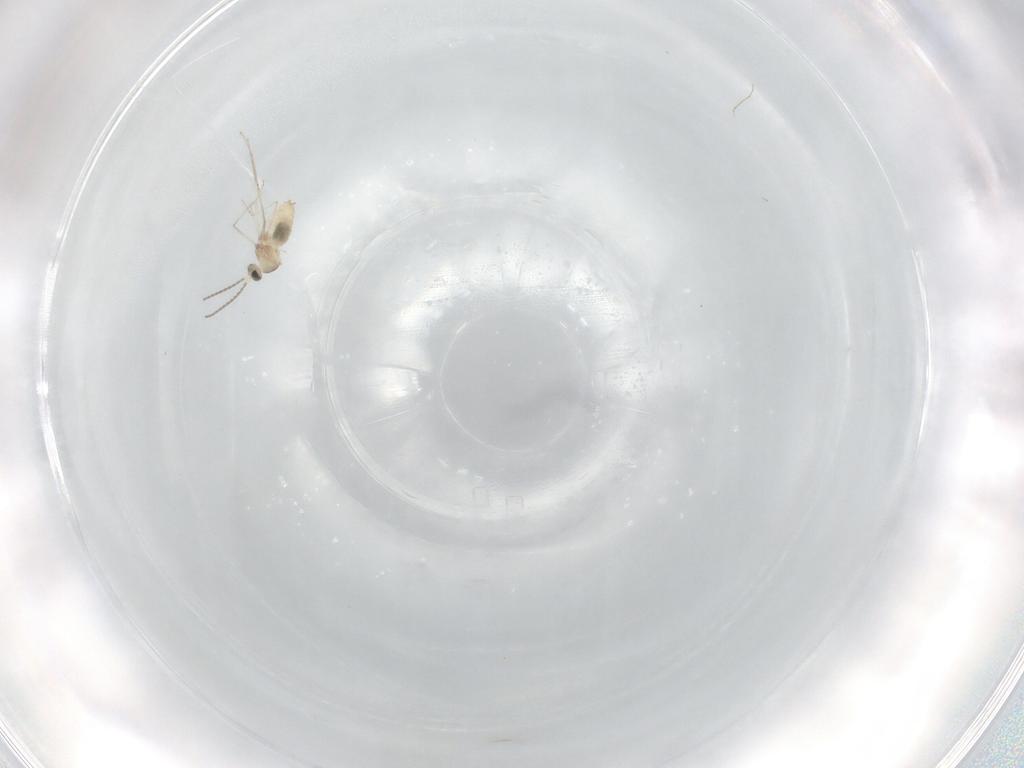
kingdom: Animalia
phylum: Arthropoda
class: Insecta
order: Diptera
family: Cecidomyiidae
